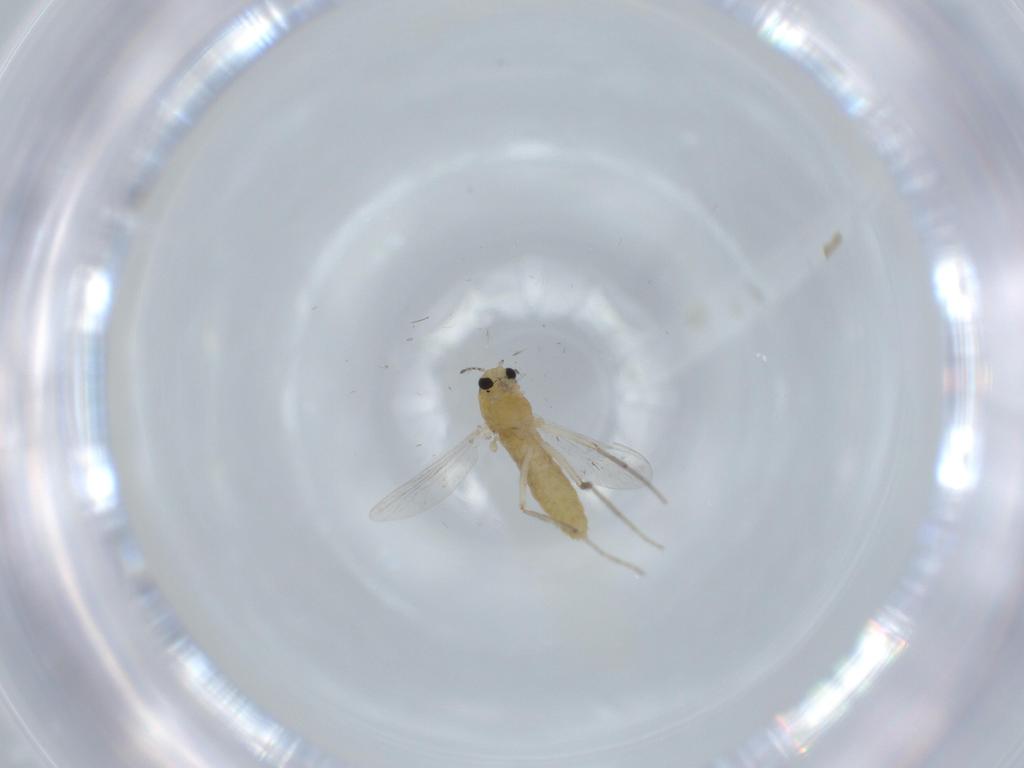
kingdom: Animalia
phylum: Arthropoda
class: Insecta
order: Diptera
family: Chironomidae
